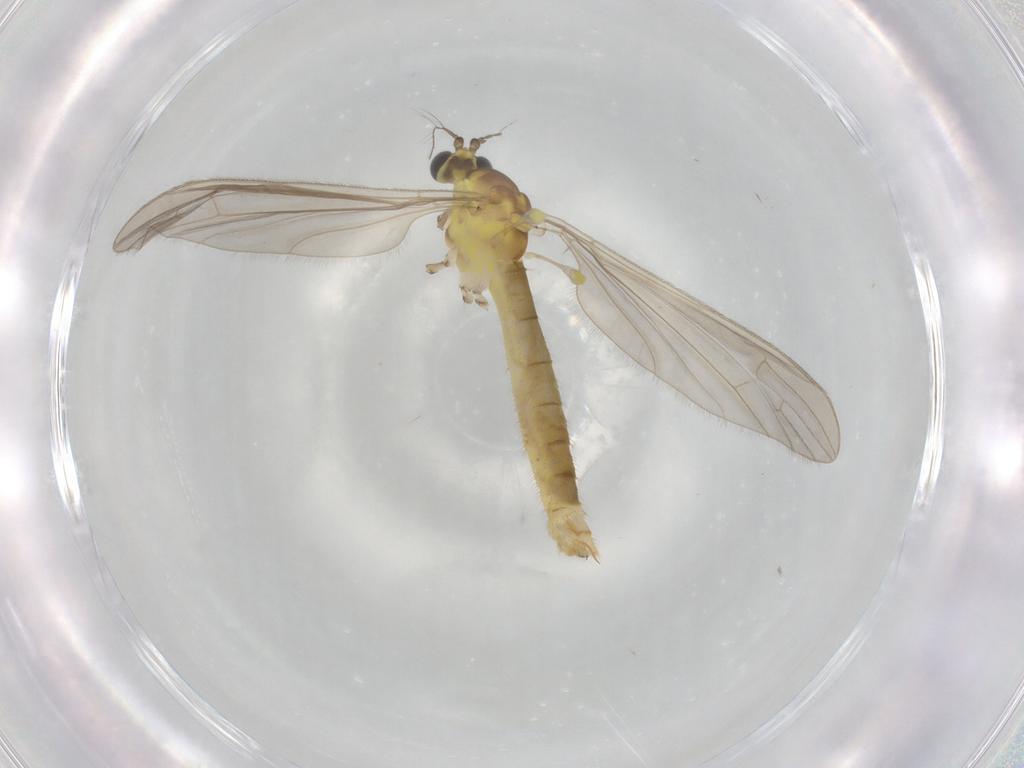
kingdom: Animalia
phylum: Arthropoda
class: Insecta
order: Diptera
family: Limoniidae
